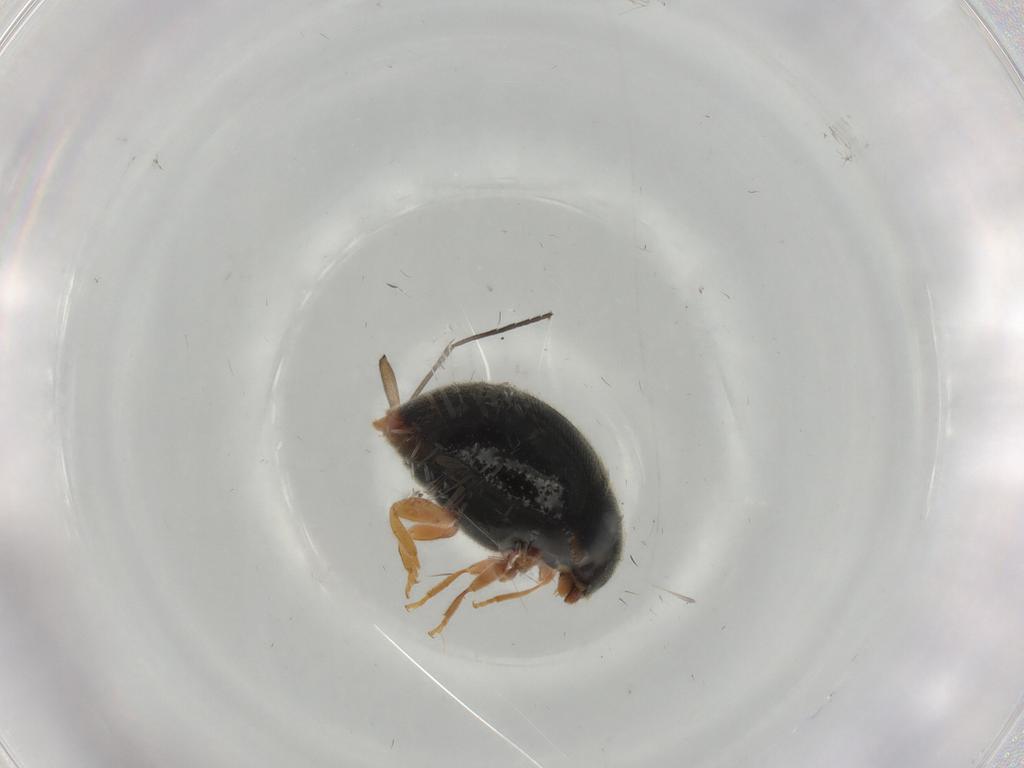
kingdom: Animalia
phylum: Arthropoda
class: Insecta
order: Coleoptera
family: Coccinellidae
